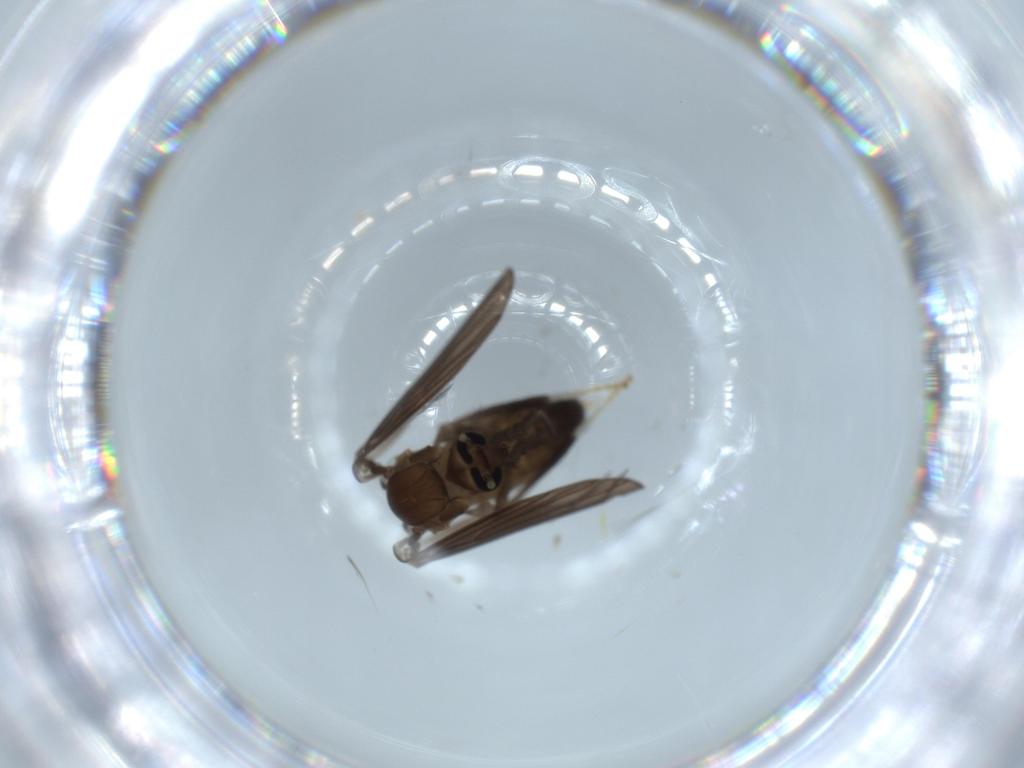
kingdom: Animalia
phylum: Arthropoda
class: Insecta
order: Diptera
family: Psychodidae
